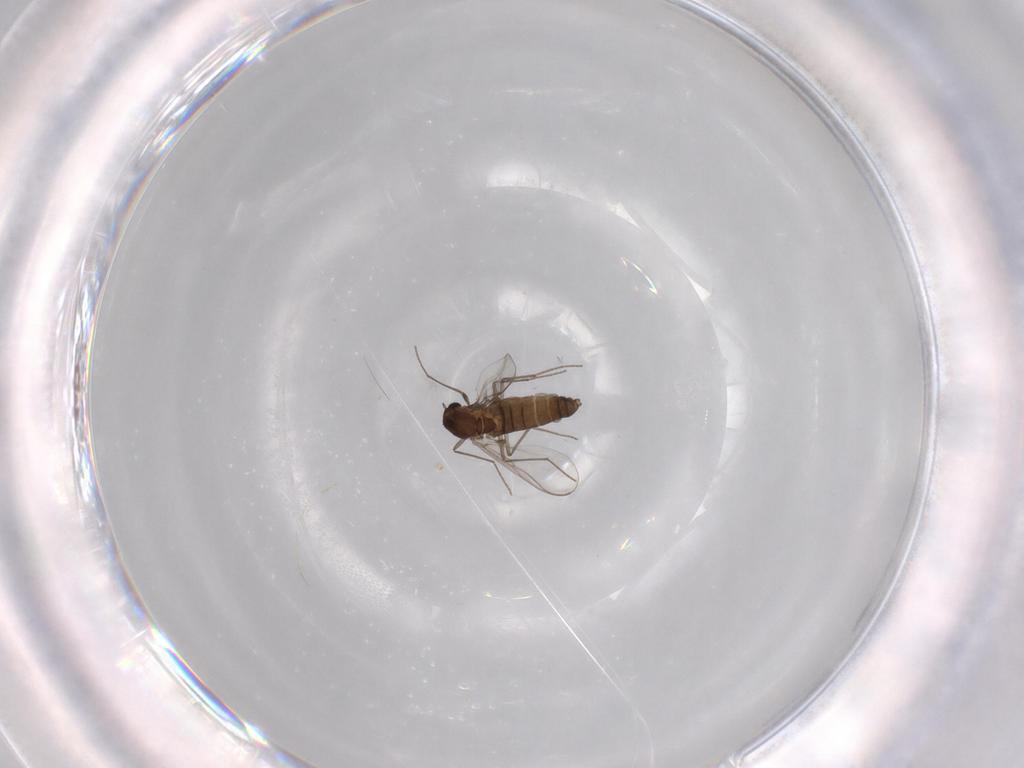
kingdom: Animalia
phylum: Arthropoda
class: Insecta
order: Diptera
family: Chironomidae
